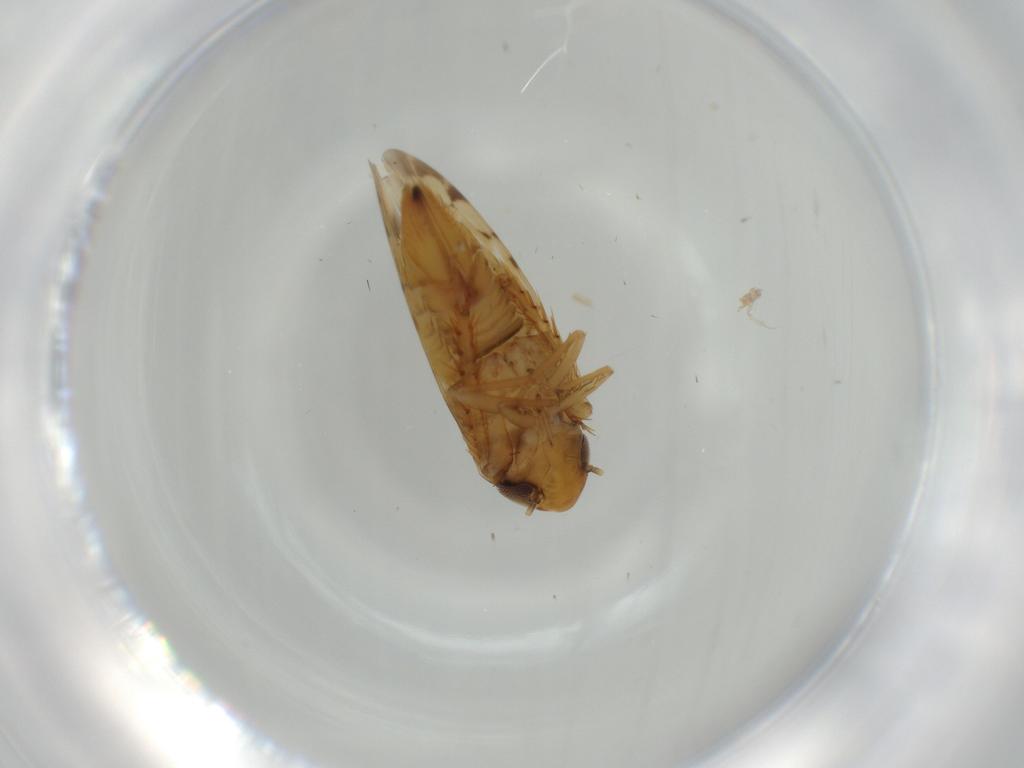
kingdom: Animalia
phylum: Arthropoda
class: Insecta
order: Hemiptera
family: Cicadellidae
